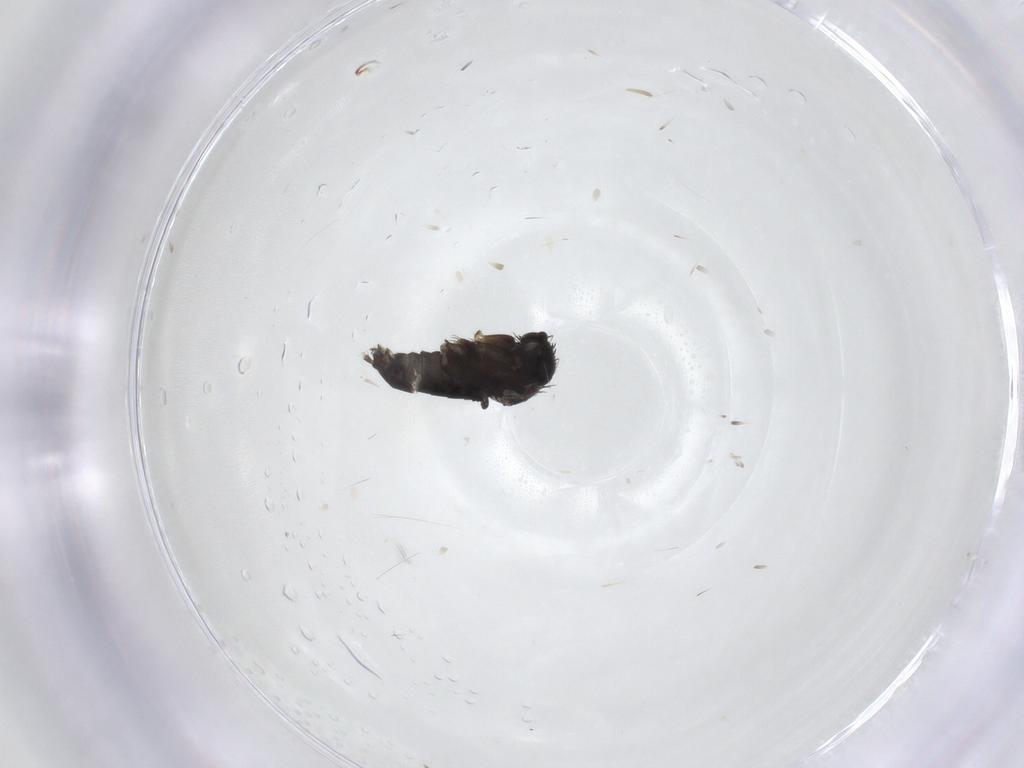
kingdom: Animalia
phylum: Arthropoda
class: Insecta
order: Diptera
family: Phoridae
